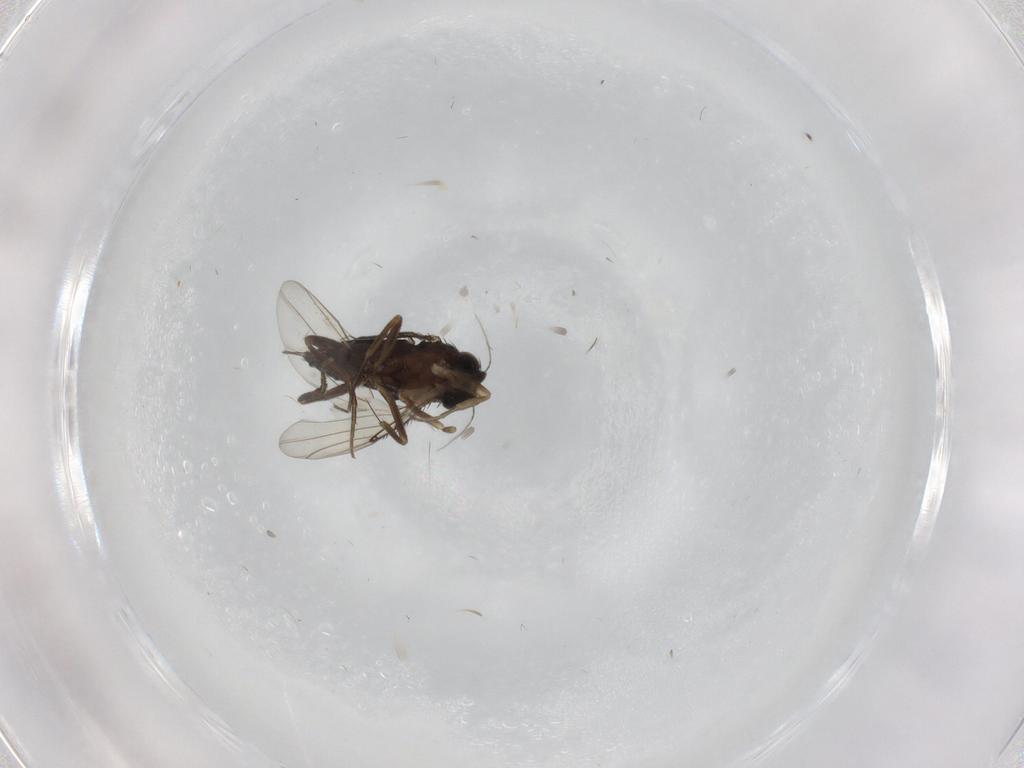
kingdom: Animalia
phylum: Arthropoda
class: Insecta
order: Diptera
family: Phoridae
